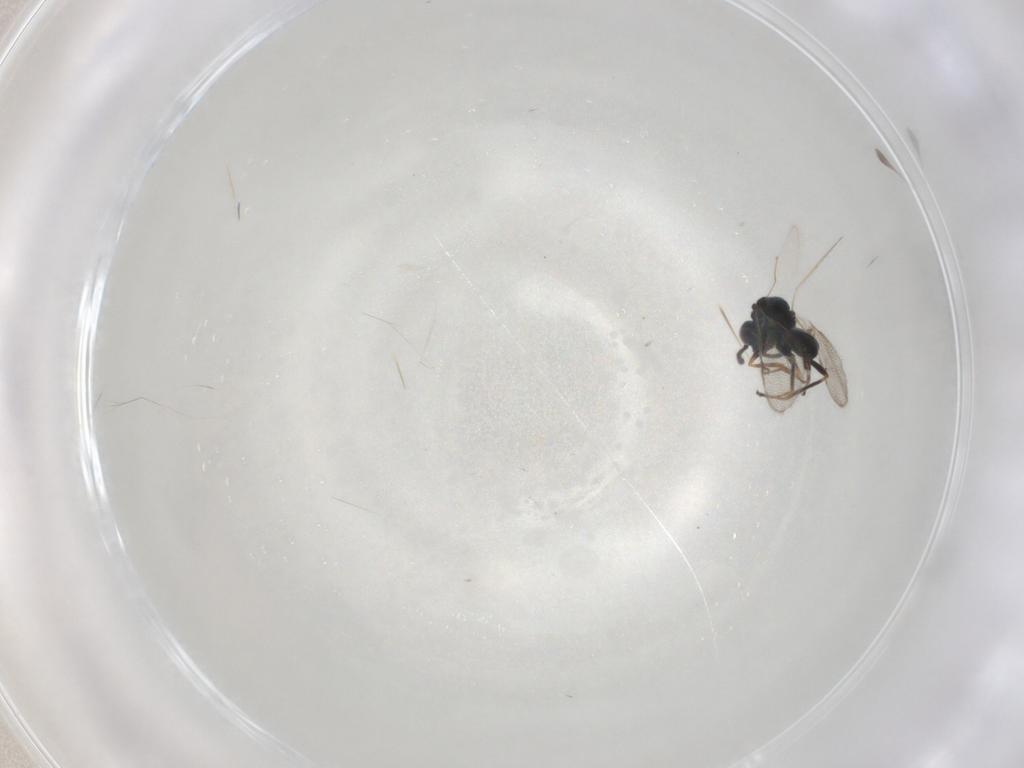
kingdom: Animalia
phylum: Arthropoda
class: Insecta
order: Hymenoptera
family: Chalcidoidea_incertae_sedis
